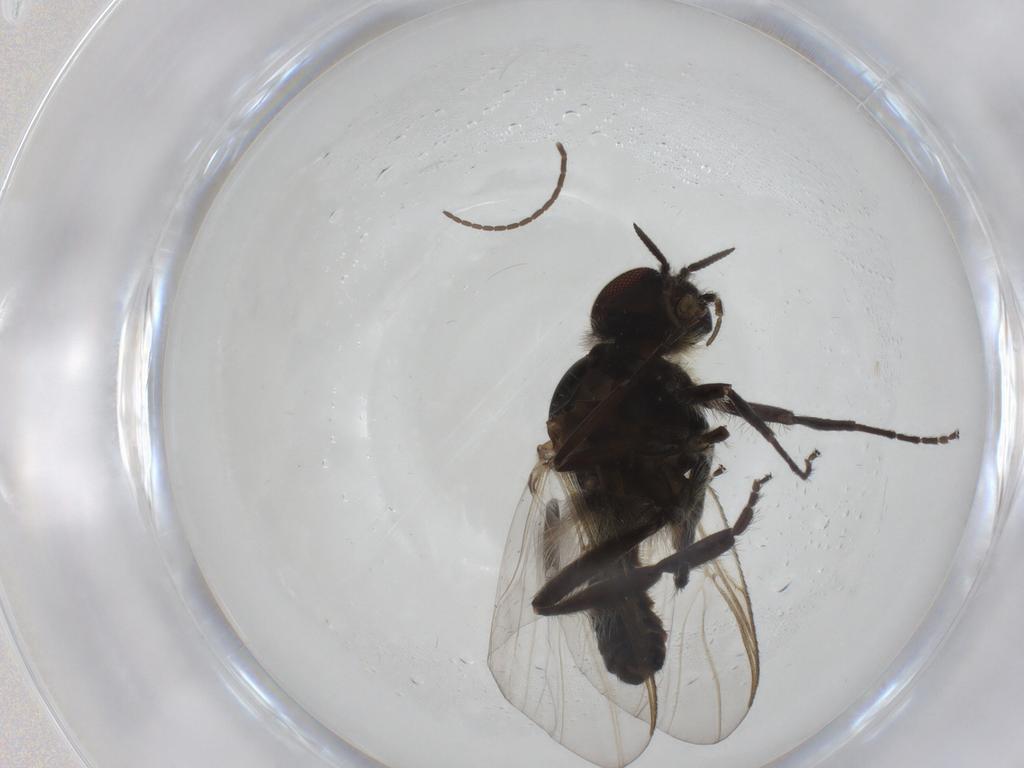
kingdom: Animalia
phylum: Arthropoda
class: Insecta
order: Diptera
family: Simuliidae
